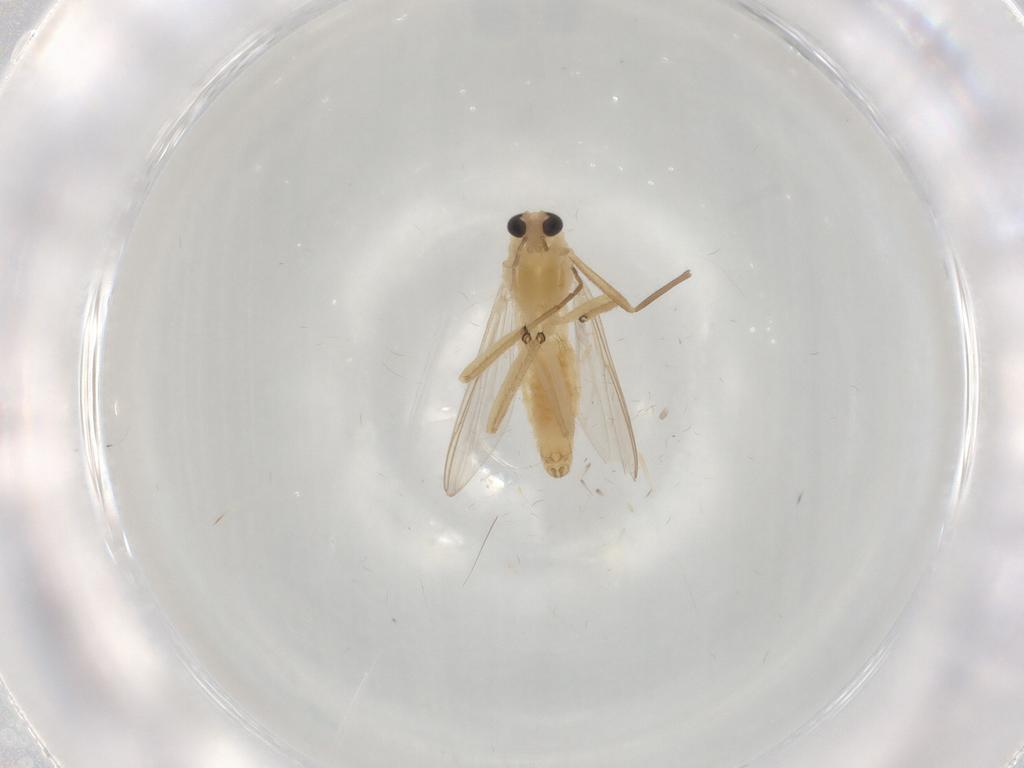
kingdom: Animalia
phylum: Arthropoda
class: Insecta
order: Diptera
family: Chironomidae
